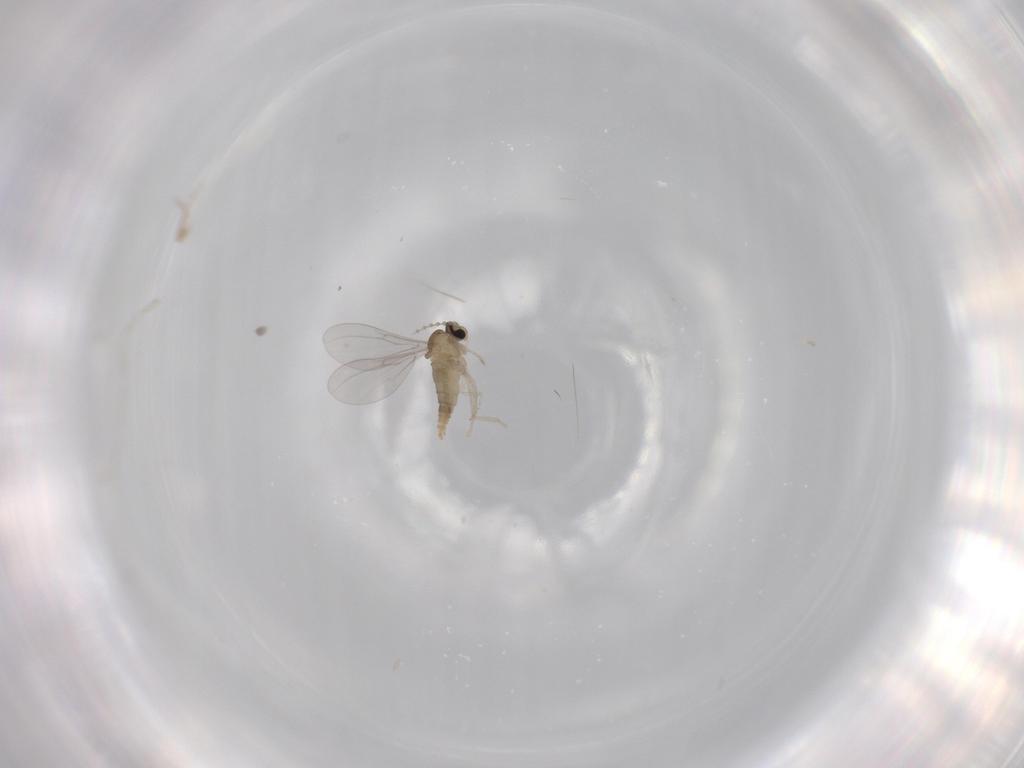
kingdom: Animalia
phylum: Arthropoda
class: Insecta
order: Diptera
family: Cecidomyiidae
